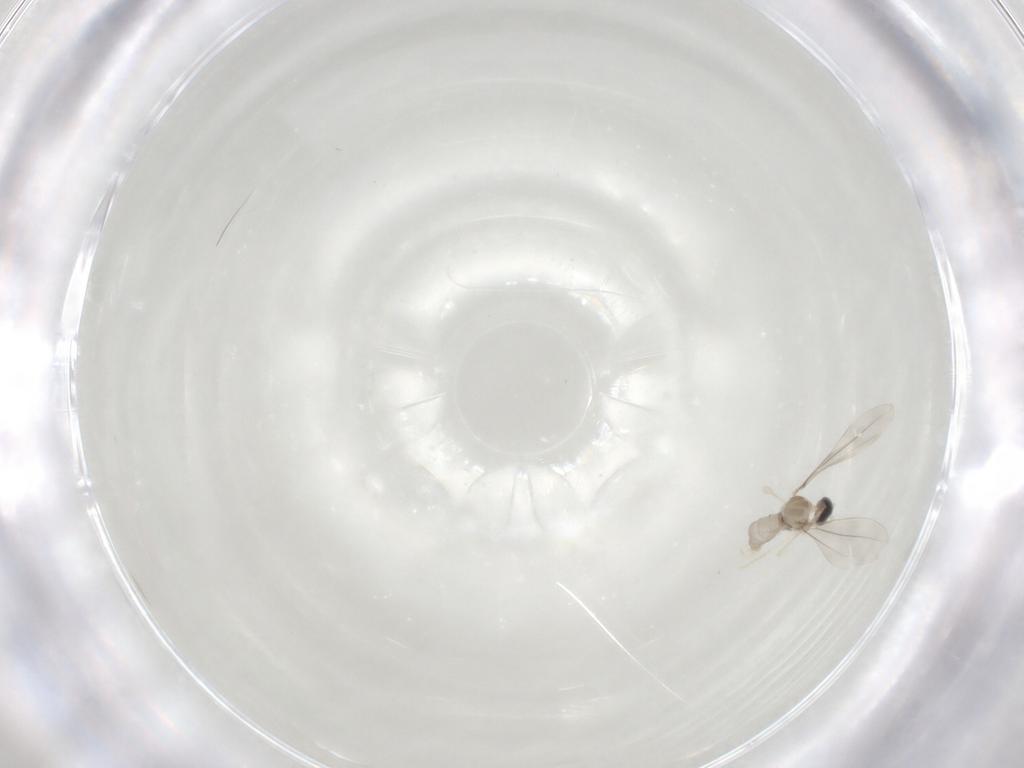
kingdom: Animalia
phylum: Arthropoda
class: Insecta
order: Diptera
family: Cecidomyiidae
